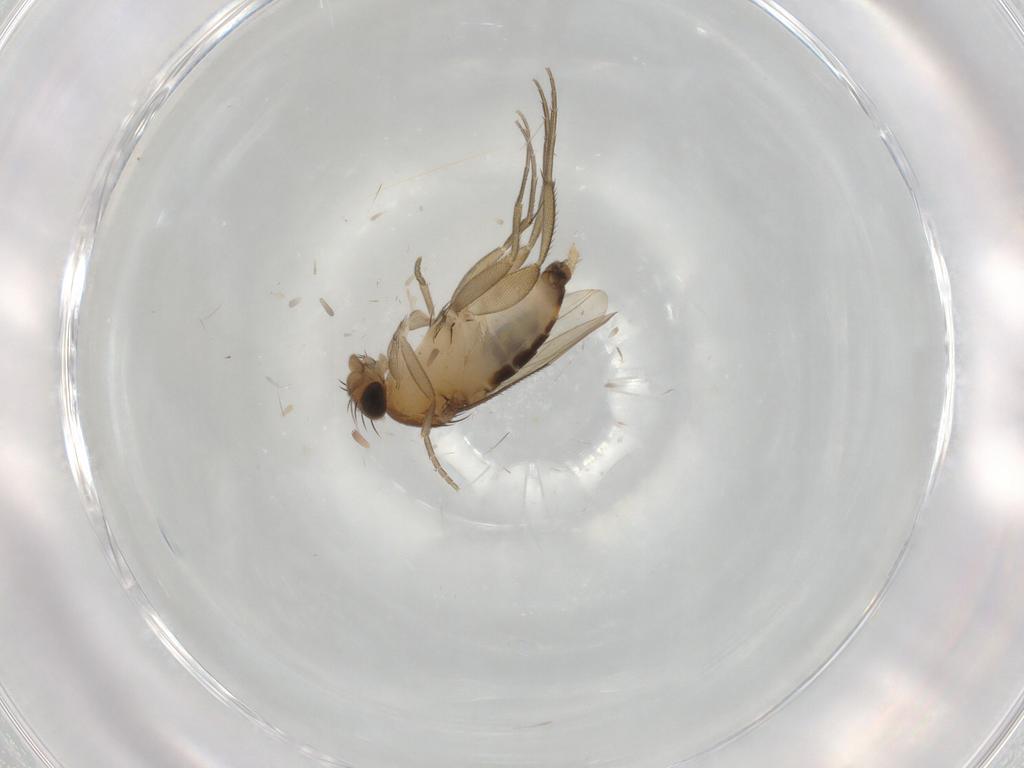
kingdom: Animalia
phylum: Arthropoda
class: Insecta
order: Diptera
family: Phoridae
